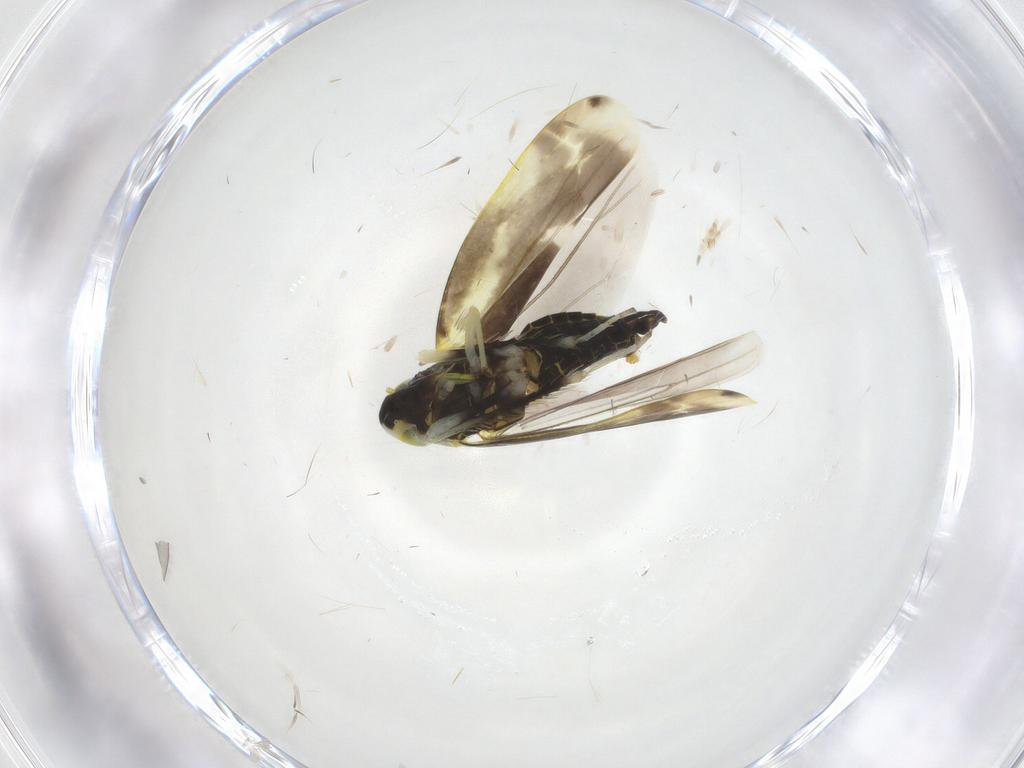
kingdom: Animalia
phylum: Arthropoda
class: Insecta
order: Hemiptera
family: Cicadellidae
